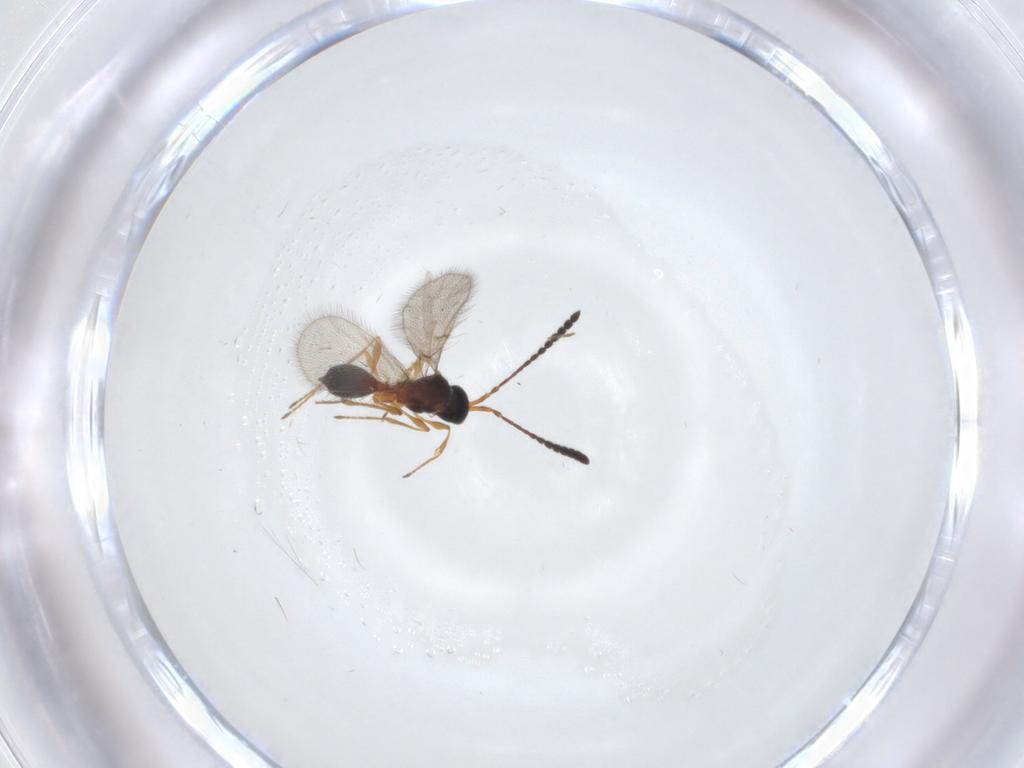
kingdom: Animalia
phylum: Arthropoda
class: Insecta
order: Hymenoptera
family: Diapriidae
